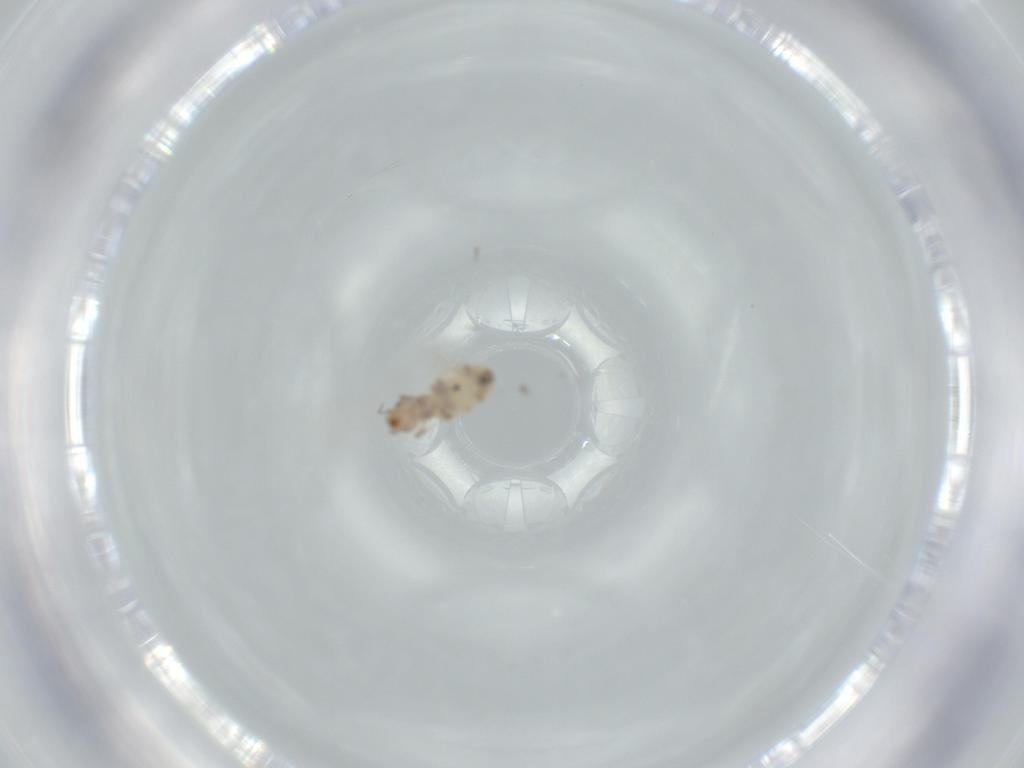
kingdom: Animalia
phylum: Arthropoda
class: Insecta
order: Psocodea
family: Liposcelididae
